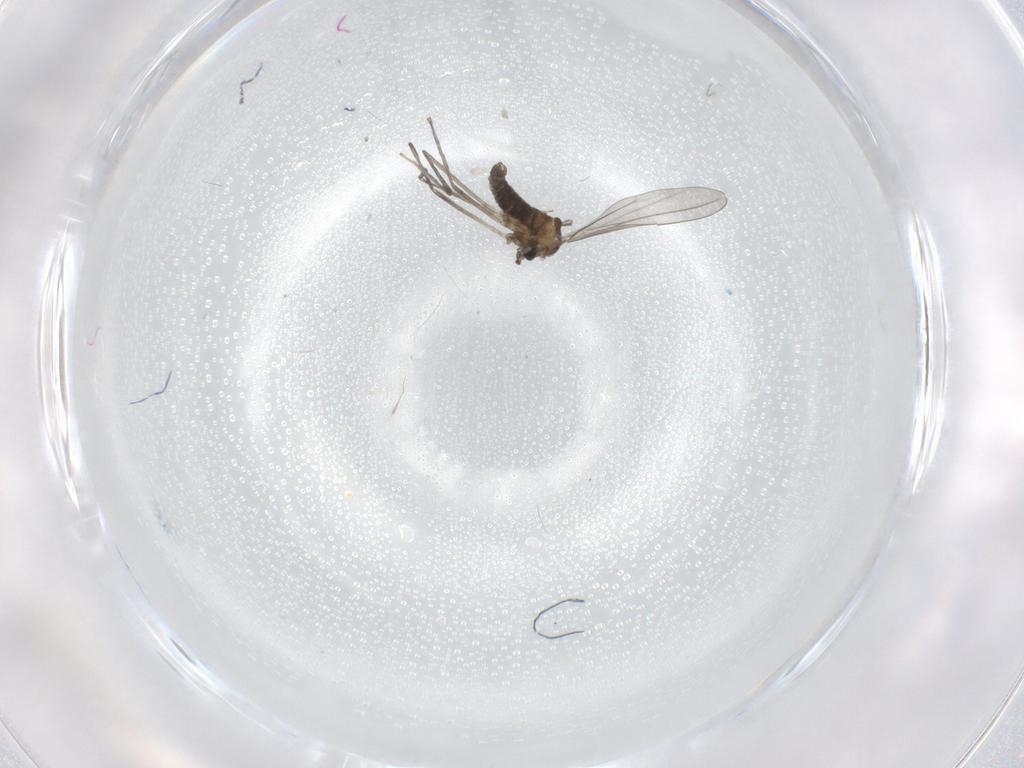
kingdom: Animalia
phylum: Arthropoda
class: Insecta
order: Diptera
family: Cecidomyiidae
